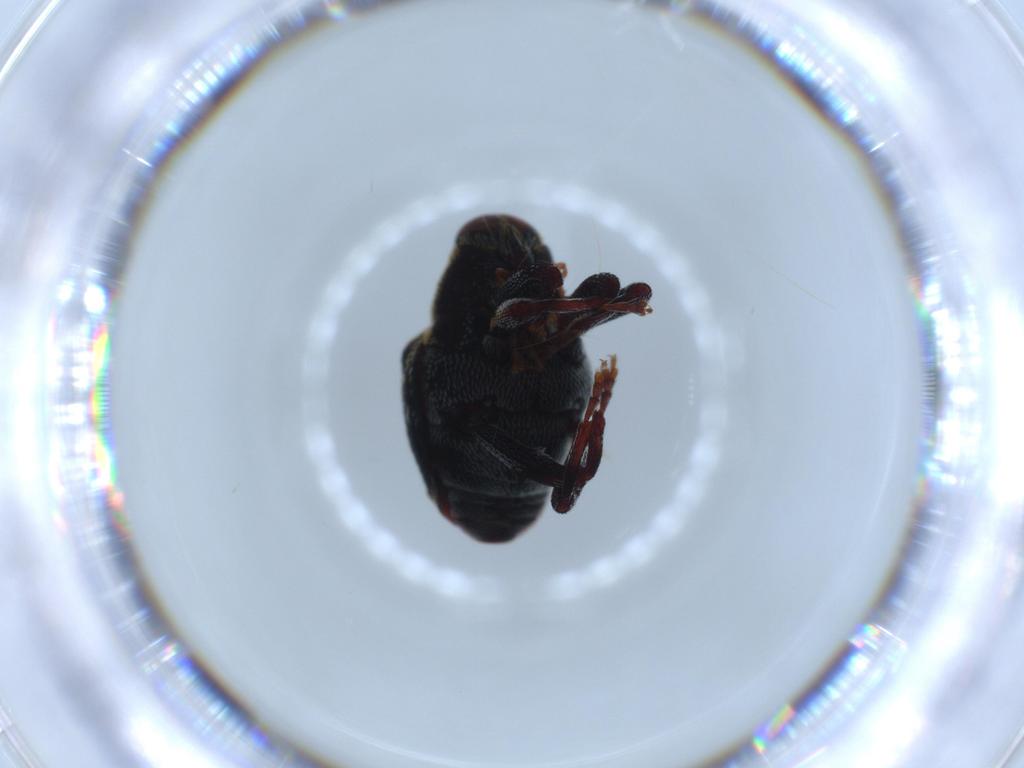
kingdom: Animalia
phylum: Arthropoda
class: Insecta
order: Coleoptera
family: Curculionidae
